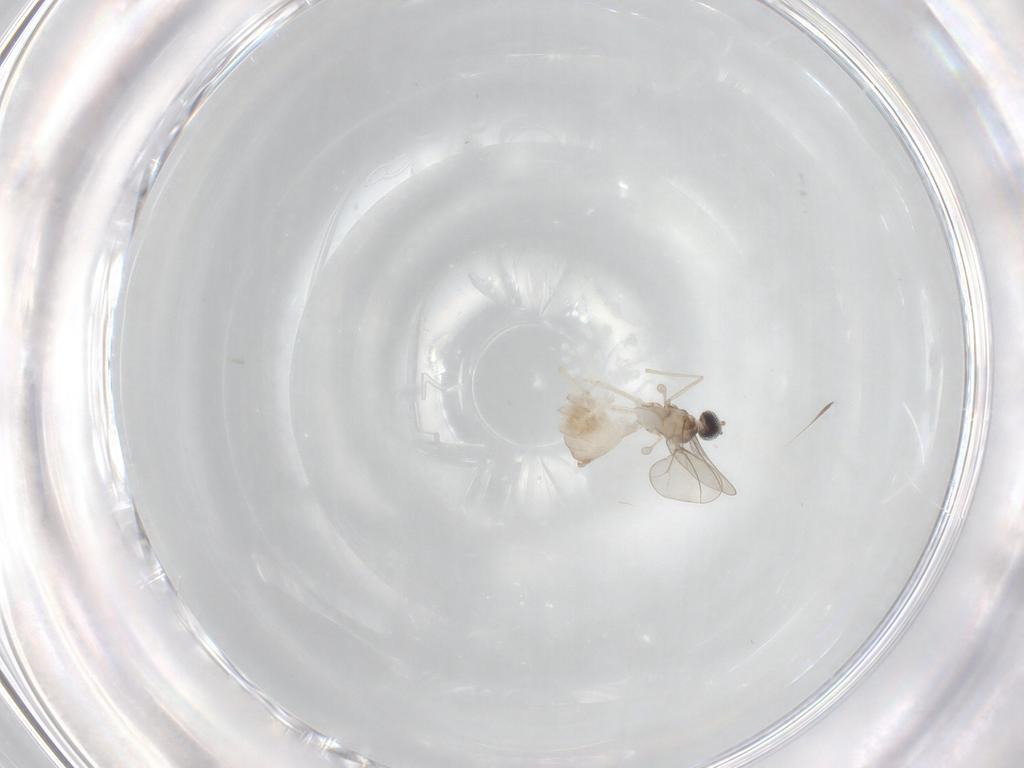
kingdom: Animalia
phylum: Arthropoda
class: Insecta
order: Diptera
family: Cecidomyiidae
